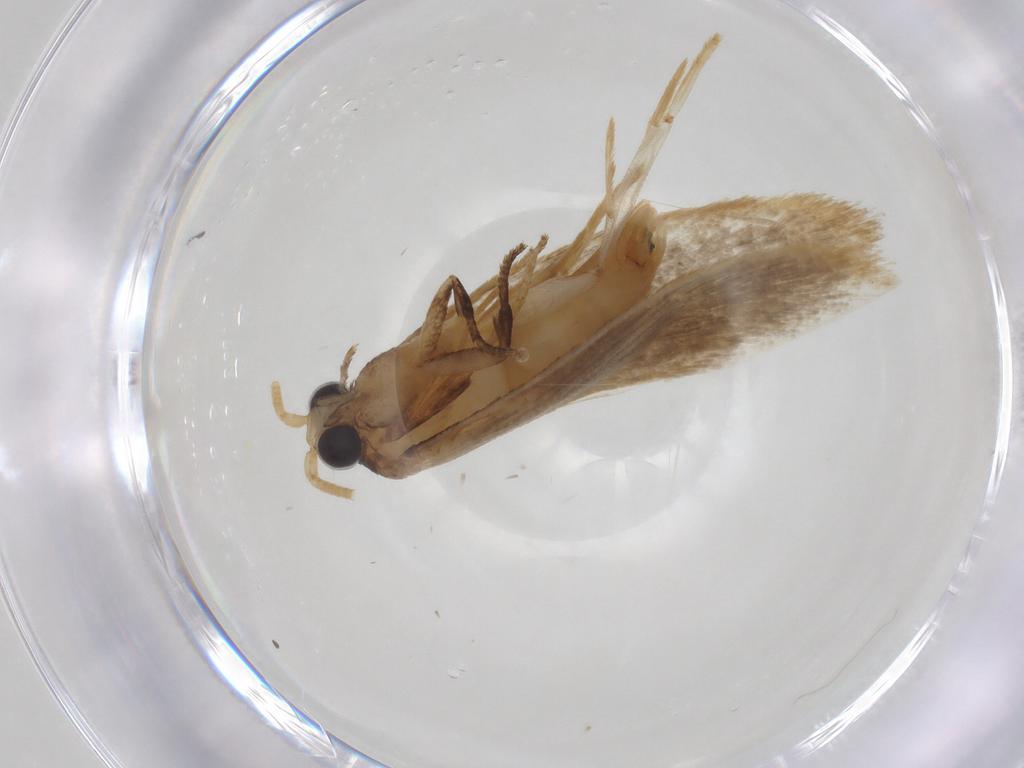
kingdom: Animalia
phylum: Arthropoda
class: Insecta
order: Lepidoptera
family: Erebidae
